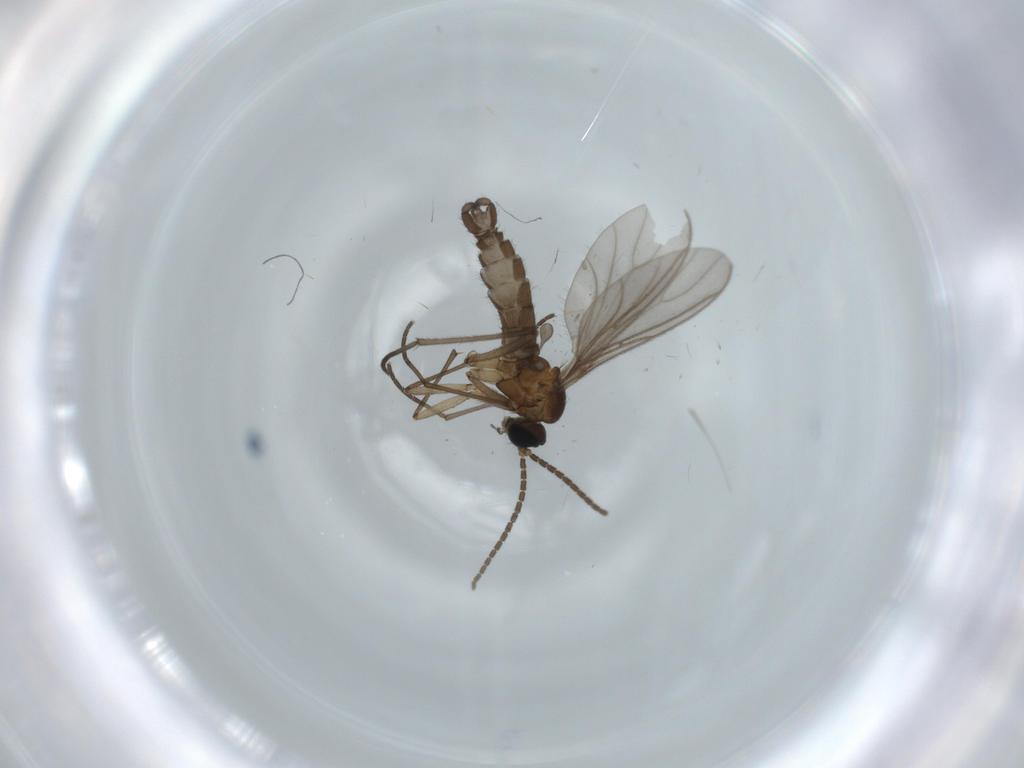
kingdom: Animalia
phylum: Arthropoda
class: Insecta
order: Diptera
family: Sciaridae
